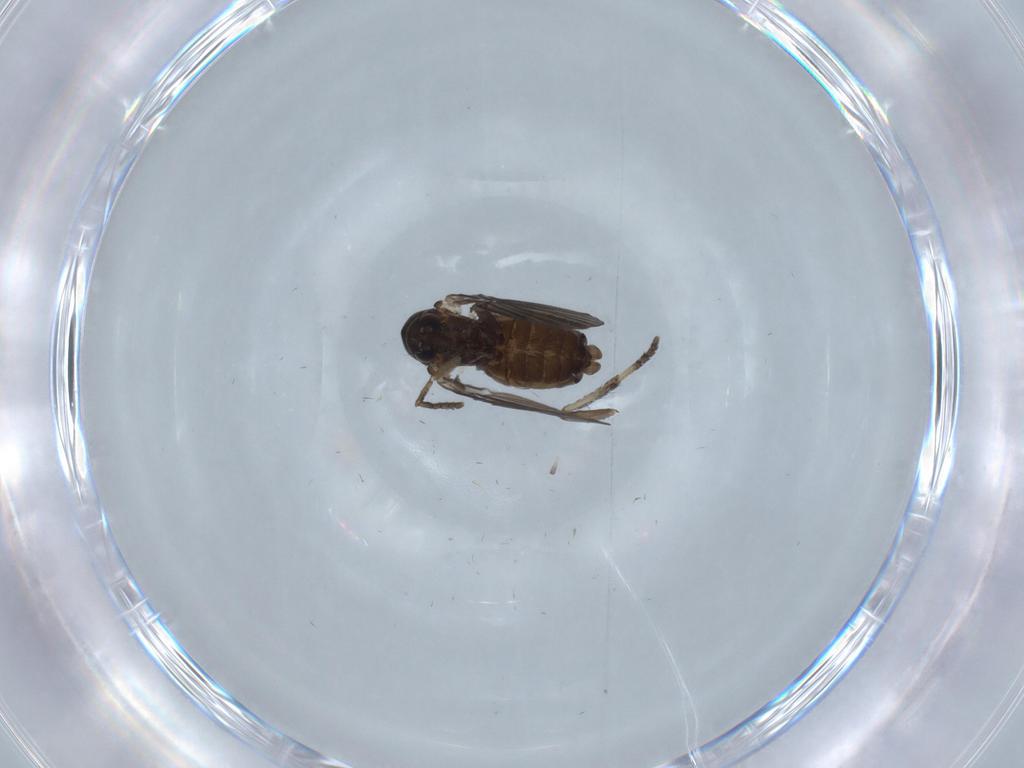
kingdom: Animalia
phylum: Arthropoda
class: Insecta
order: Diptera
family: Psychodidae
